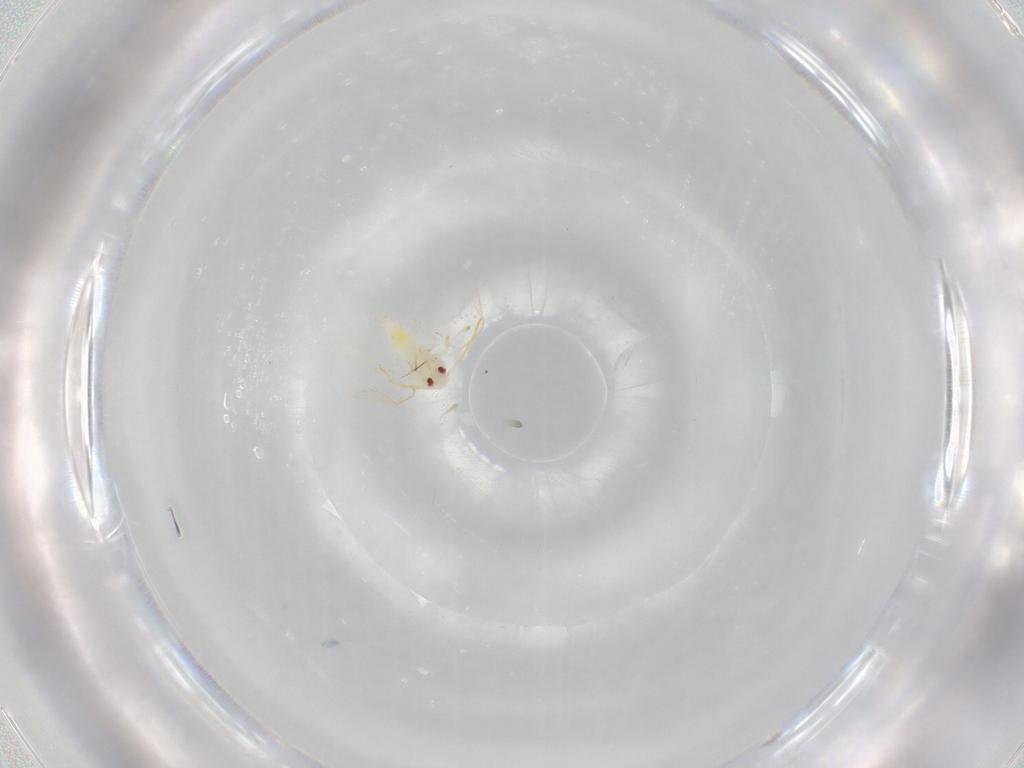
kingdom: Animalia
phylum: Arthropoda
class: Insecta
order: Hemiptera
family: Aleyrodidae
